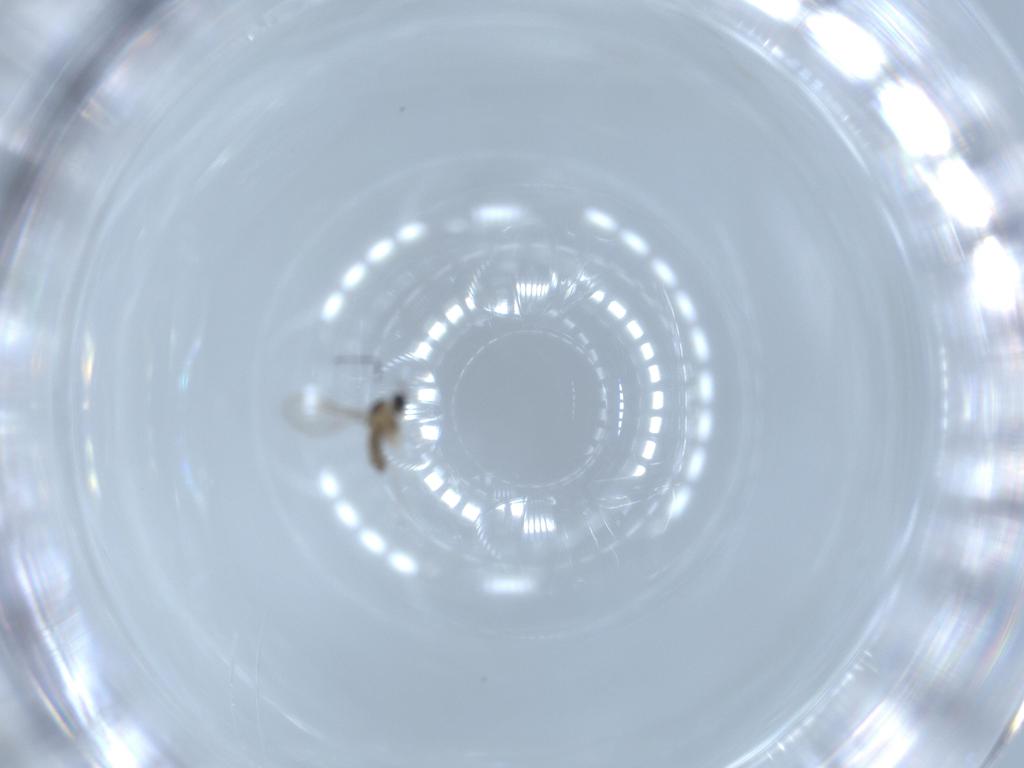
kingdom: Animalia
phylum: Arthropoda
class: Insecta
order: Diptera
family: Cecidomyiidae
